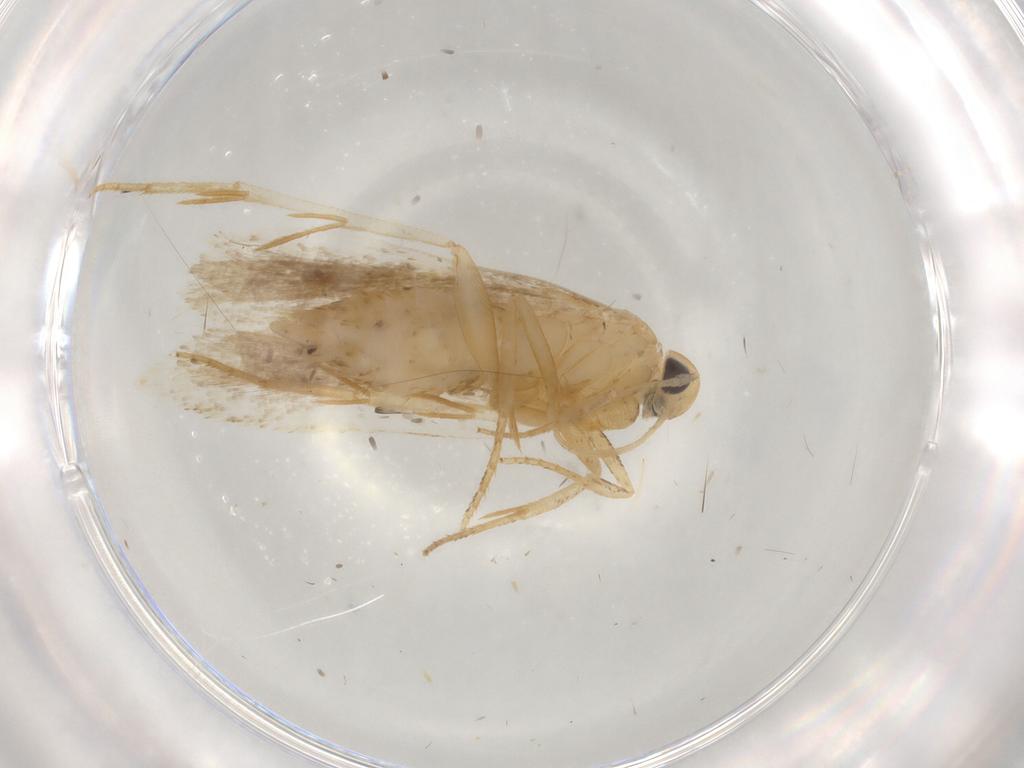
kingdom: Animalia
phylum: Arthropoda
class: Insecta
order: Lepidoptera
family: Gelechiidae
